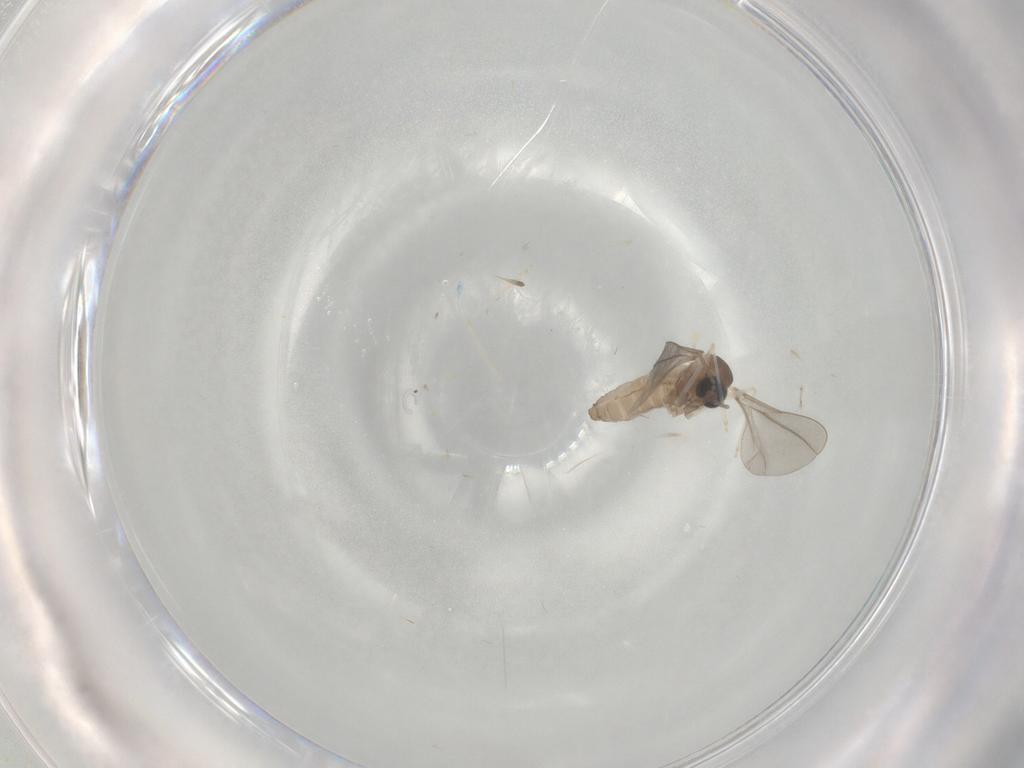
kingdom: Animalia
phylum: Arthropoda
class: Insecta
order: Diptera
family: Cecidomyiidae
